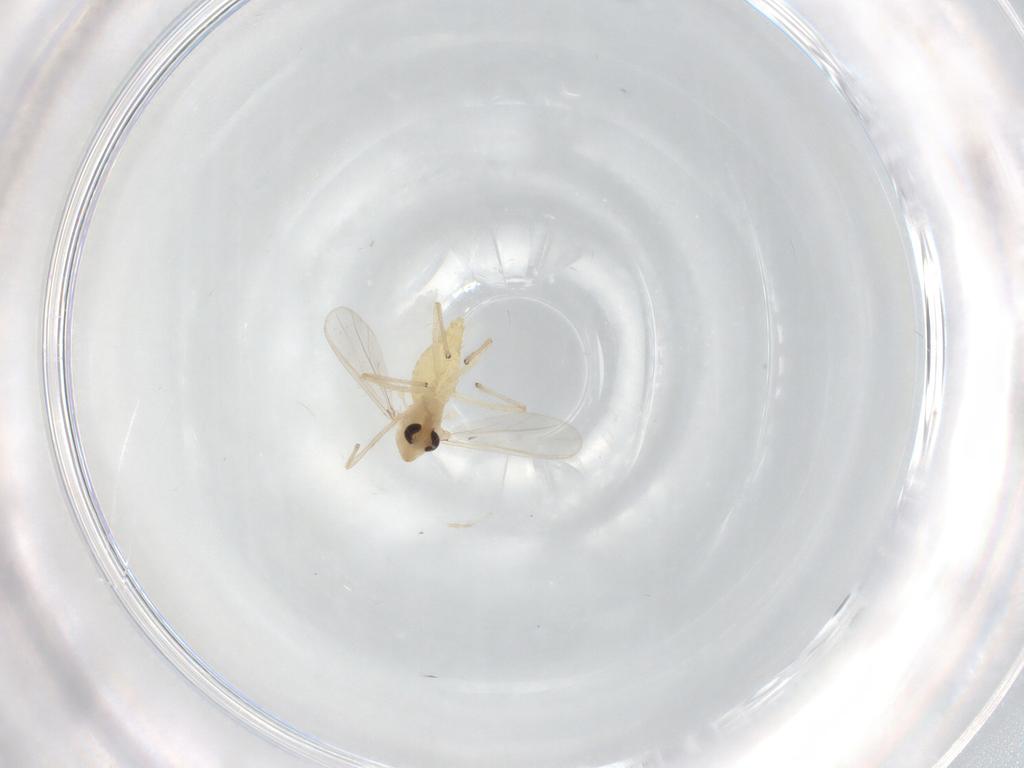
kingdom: Animalia
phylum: Arthropoda
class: Insecta
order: Diptera
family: Chironomidae
